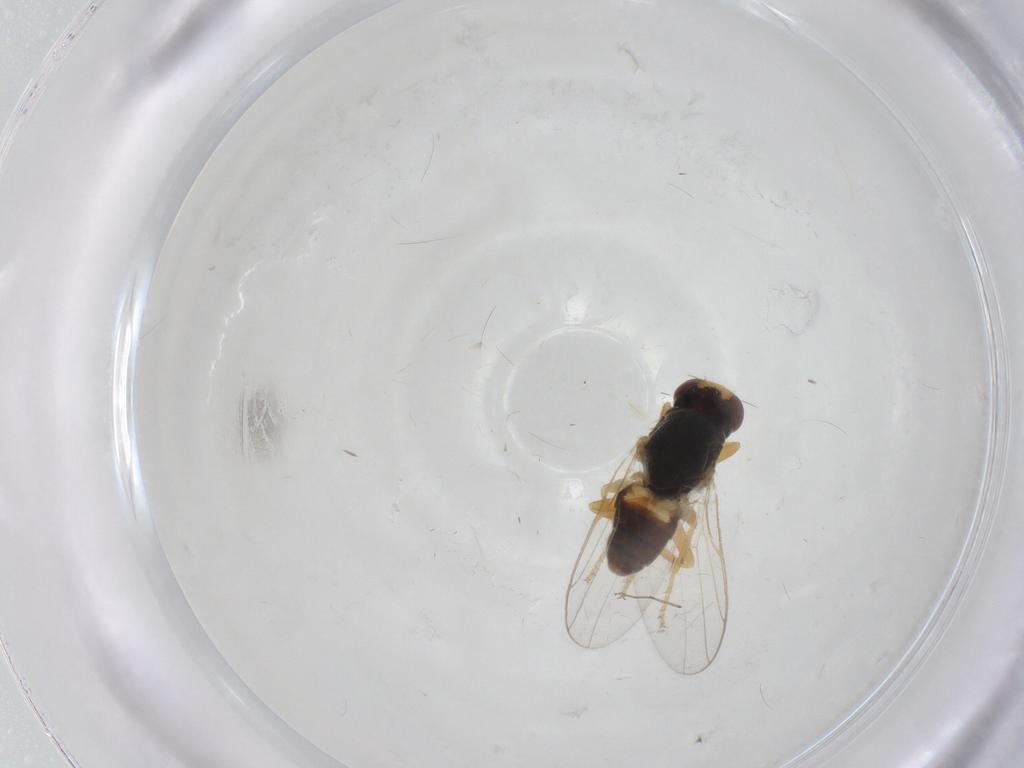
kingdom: Animalia
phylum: Arthropoda
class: Insecta
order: Diptera
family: Chloropidae
